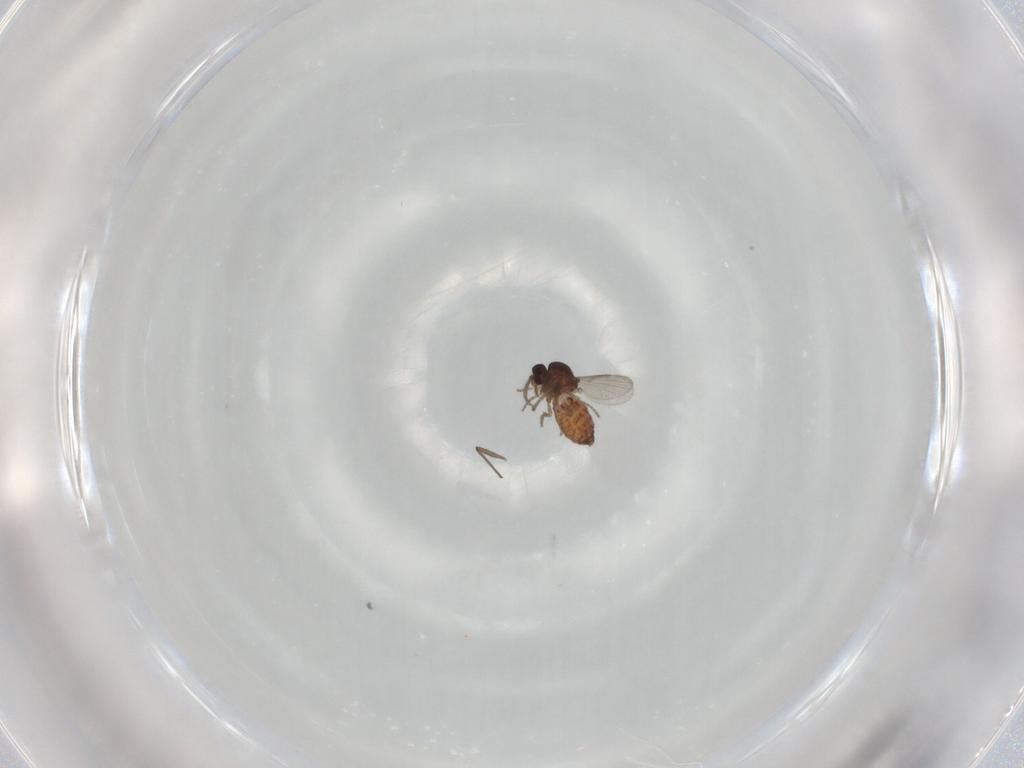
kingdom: Animalia
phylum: Arthropoda
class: Insecta
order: Diptera
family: Ceratopogonidae
